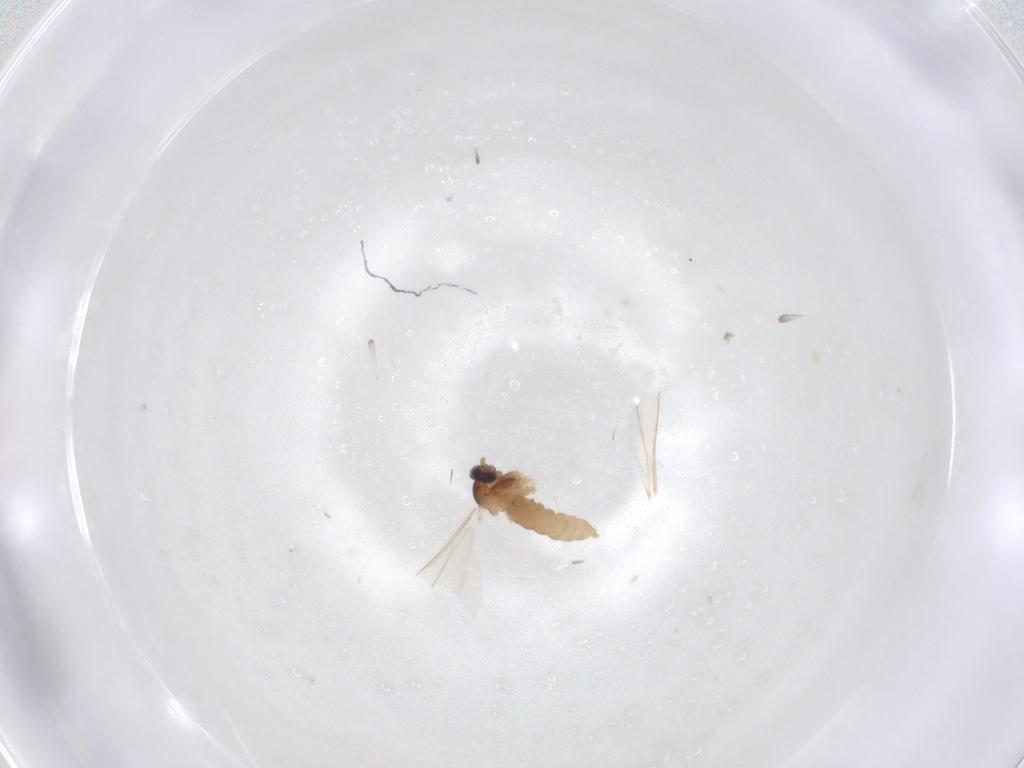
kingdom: Animalia
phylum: Arthropoda
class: Insecta
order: Diptera
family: Cecidomyiidae
